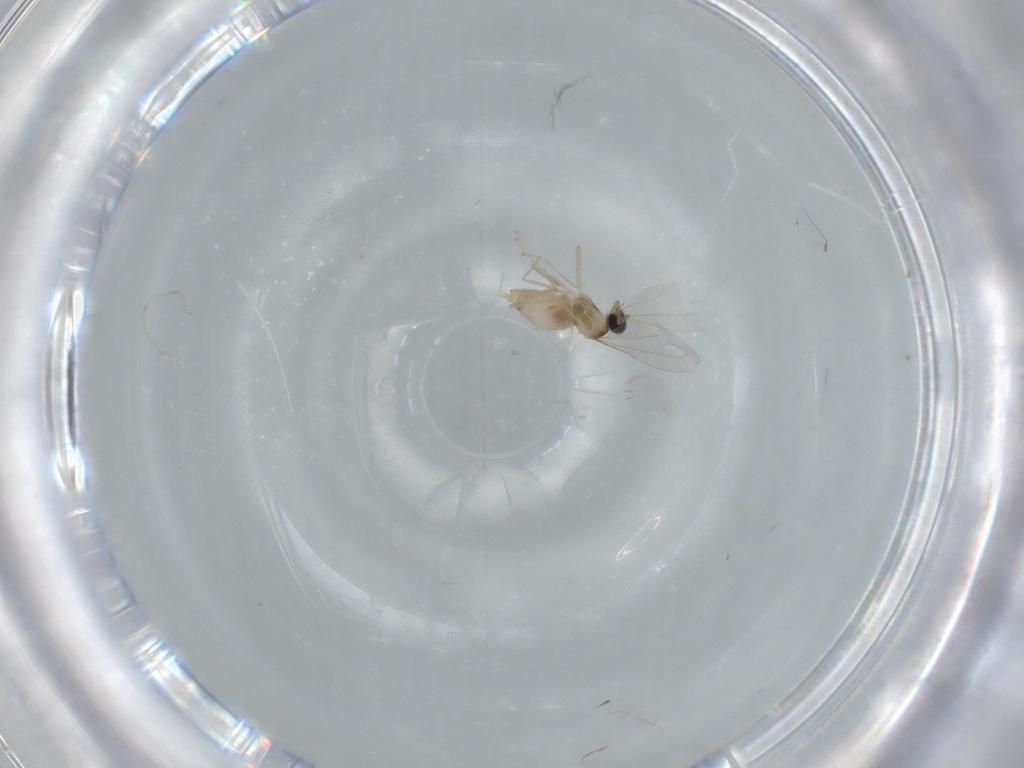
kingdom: Animalia
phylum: Arthropoda
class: Insecta
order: Diptera
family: Cecidomyiidae
